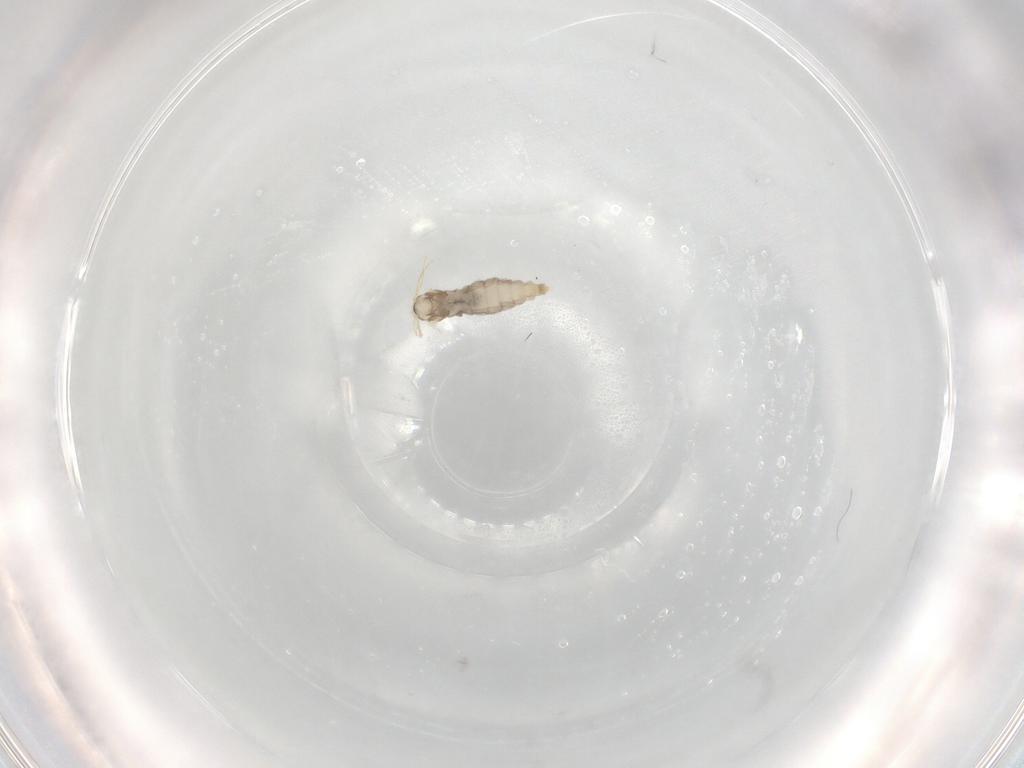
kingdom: Animalia
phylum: Arthropoda
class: Insecta
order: Diptera
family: Cecidomyiidae
